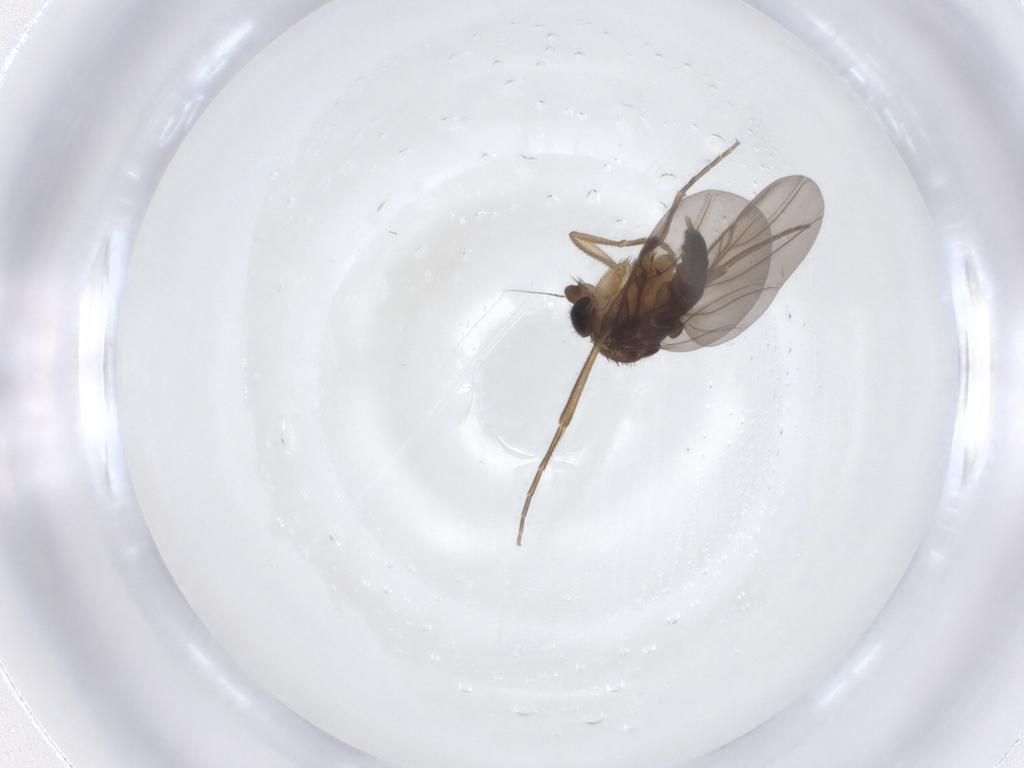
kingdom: Animalia
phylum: Arthropoda
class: Insecta
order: Diptera
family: Phoridae
